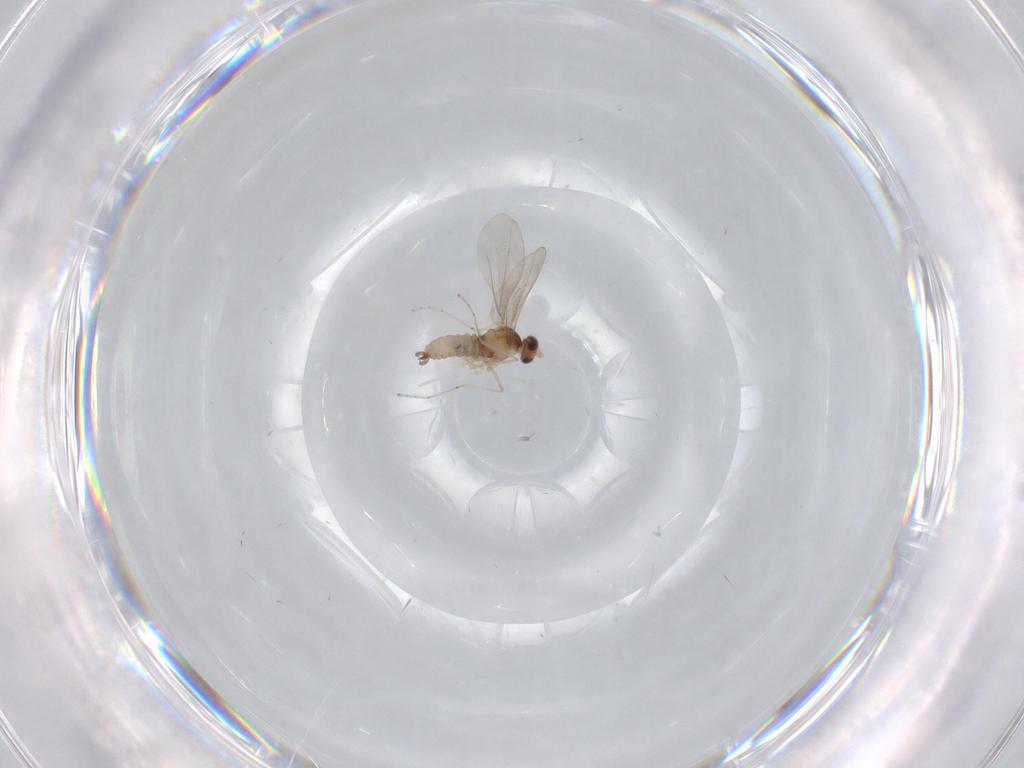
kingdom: Animalia
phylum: Arthropoda
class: Insecta
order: Diptera
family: Cecidomyiidae
